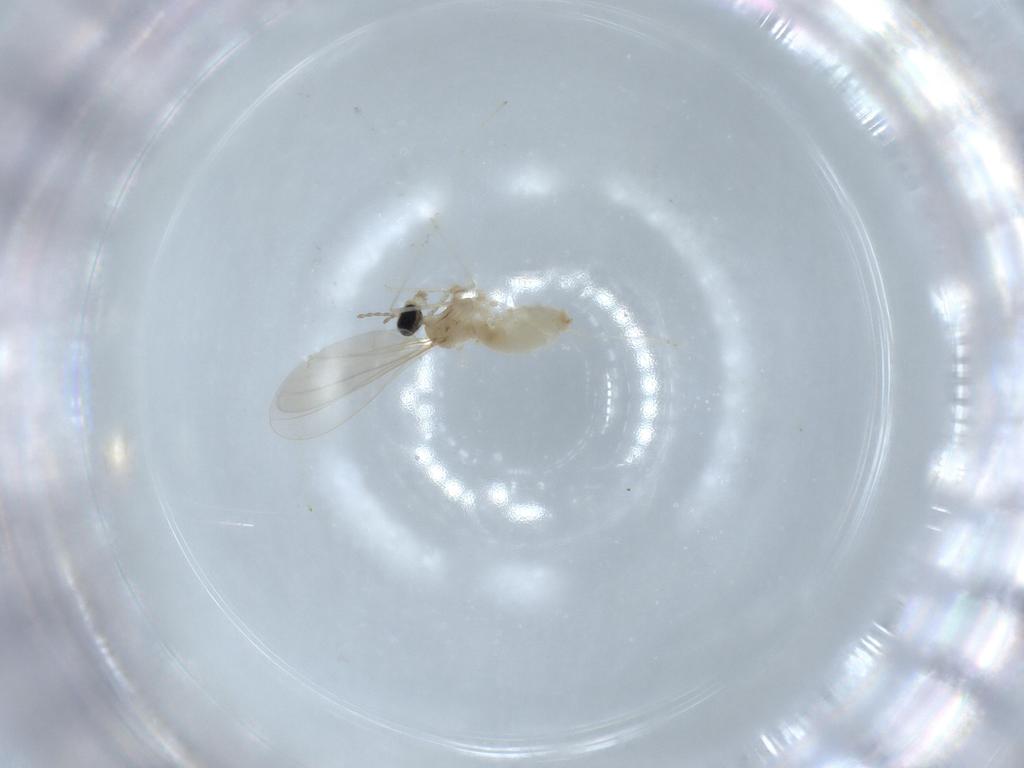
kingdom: Animalia
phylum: Arthropoda
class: Insecta
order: Diptera
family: Cecidomyiidae
